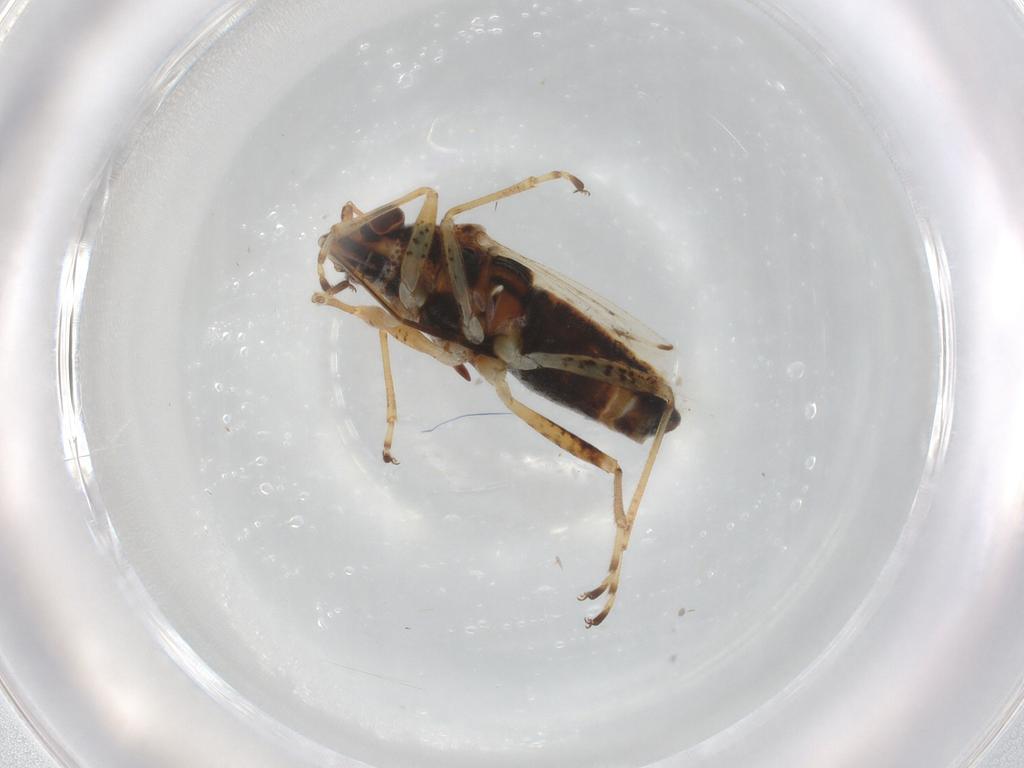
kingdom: Animalia
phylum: Arthropoda
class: Insecta
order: Hemiptera
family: Lygaeidae
